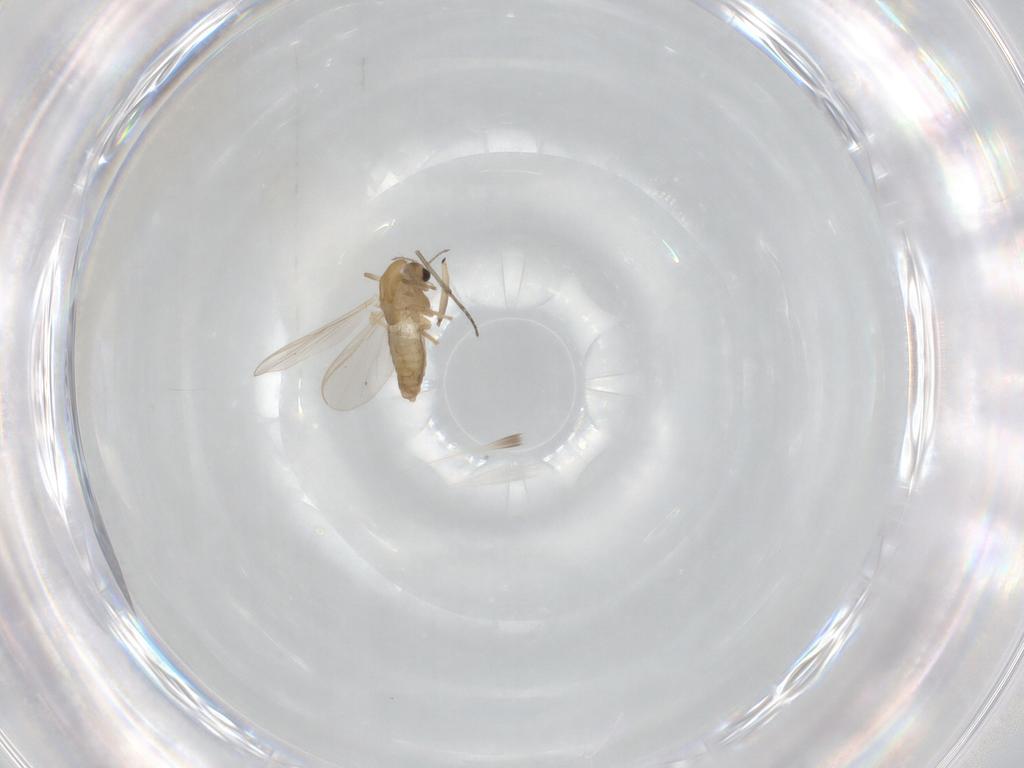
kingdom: Animalia
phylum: Arthropoda
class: Insecta
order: Diptera
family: Chironomidae
